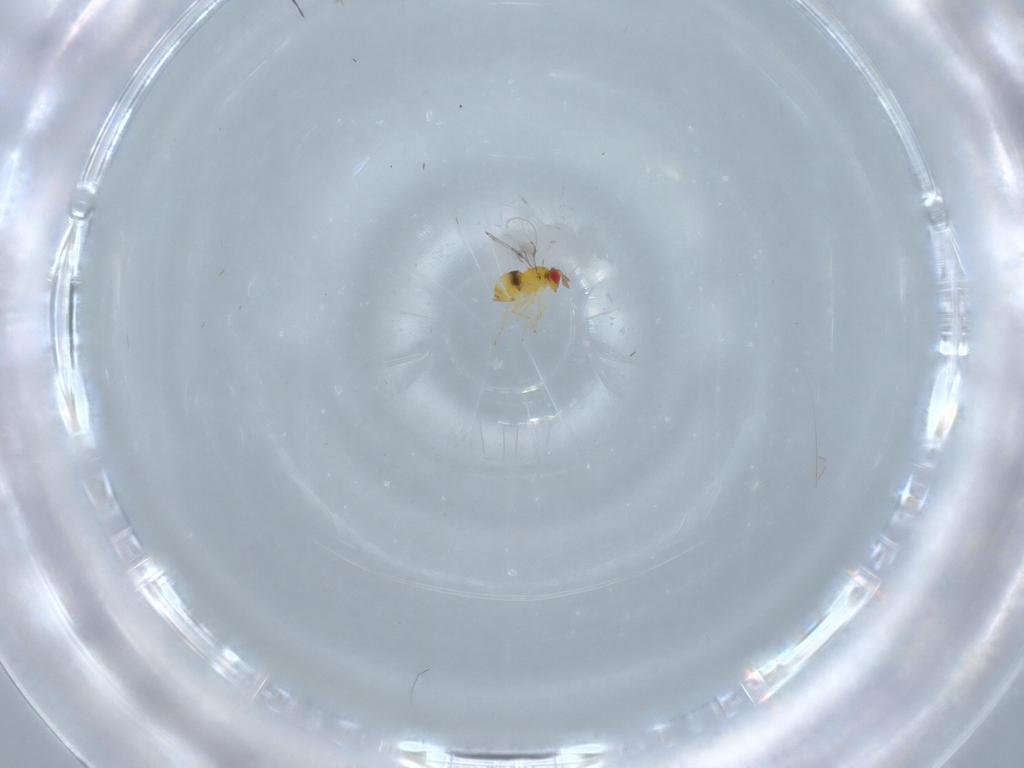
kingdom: Animalia
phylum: Arthropoda
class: Insecta
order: Hymenoptera
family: Trichogrammatidae
